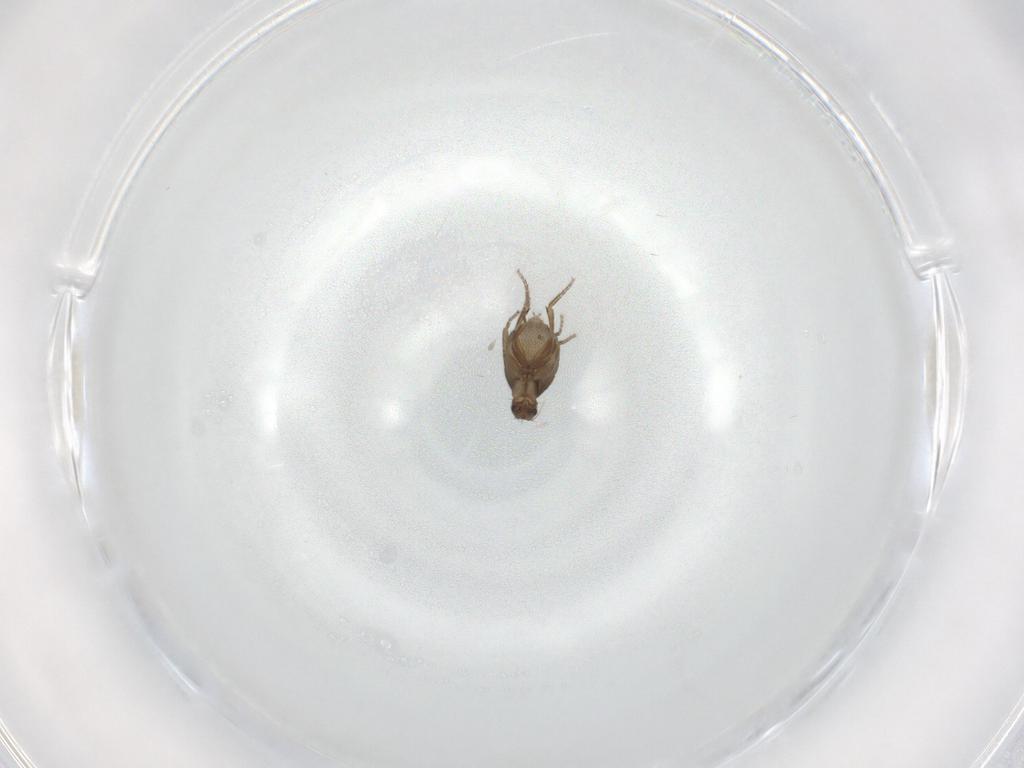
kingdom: Animalia
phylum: Arthropoda
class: Insecta
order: Diptera
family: Phoridae
